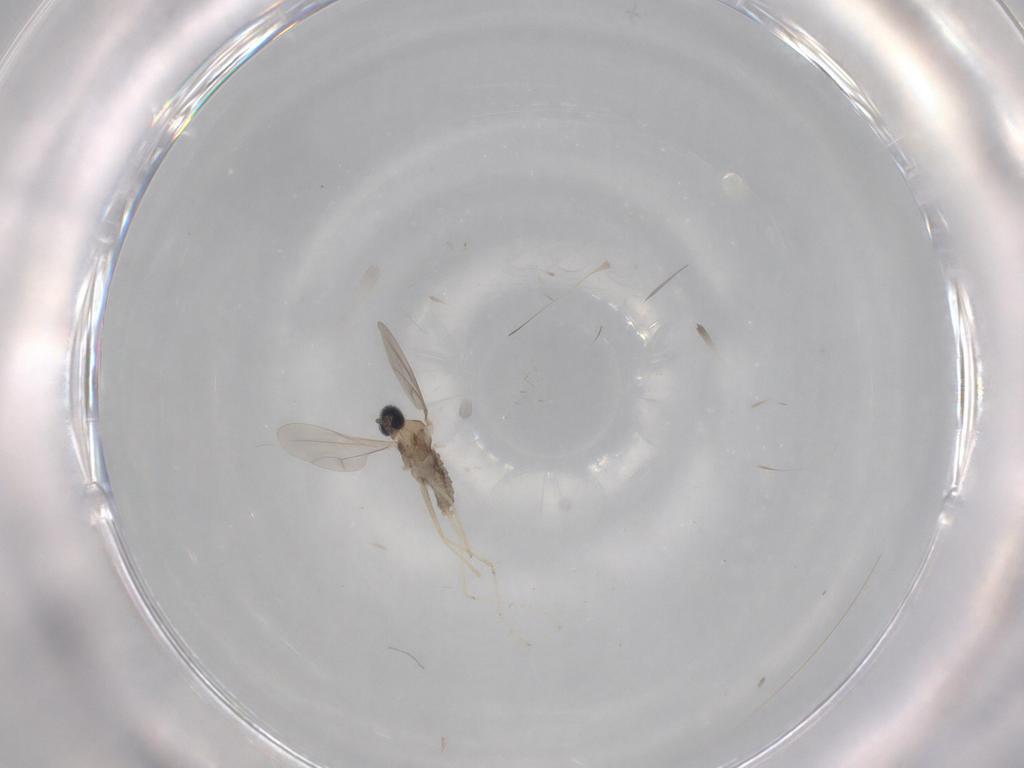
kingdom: Animalia
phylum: Arthropoda
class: Insecta
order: Diptera
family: Phoridae
